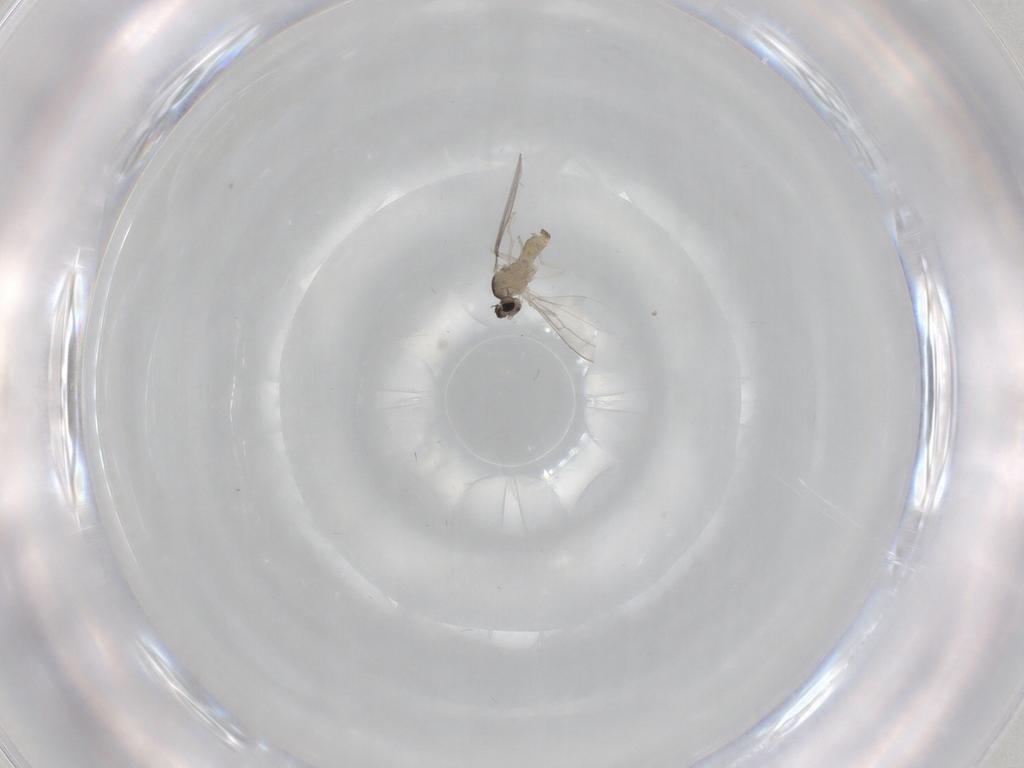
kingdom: Animalia
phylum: Arthropoda
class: Insecta
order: Diptera
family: Cecidomyiidae
